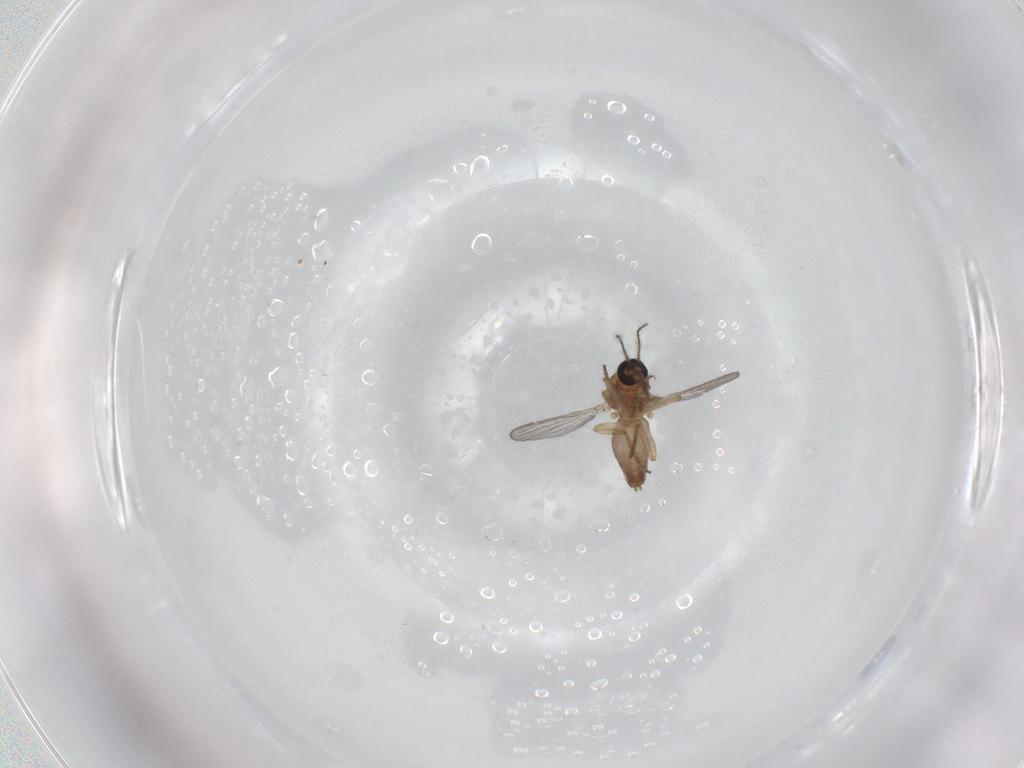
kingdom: Animalia
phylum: Arthropoda
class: Insecta
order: Diptera
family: Ceratopogonidae
